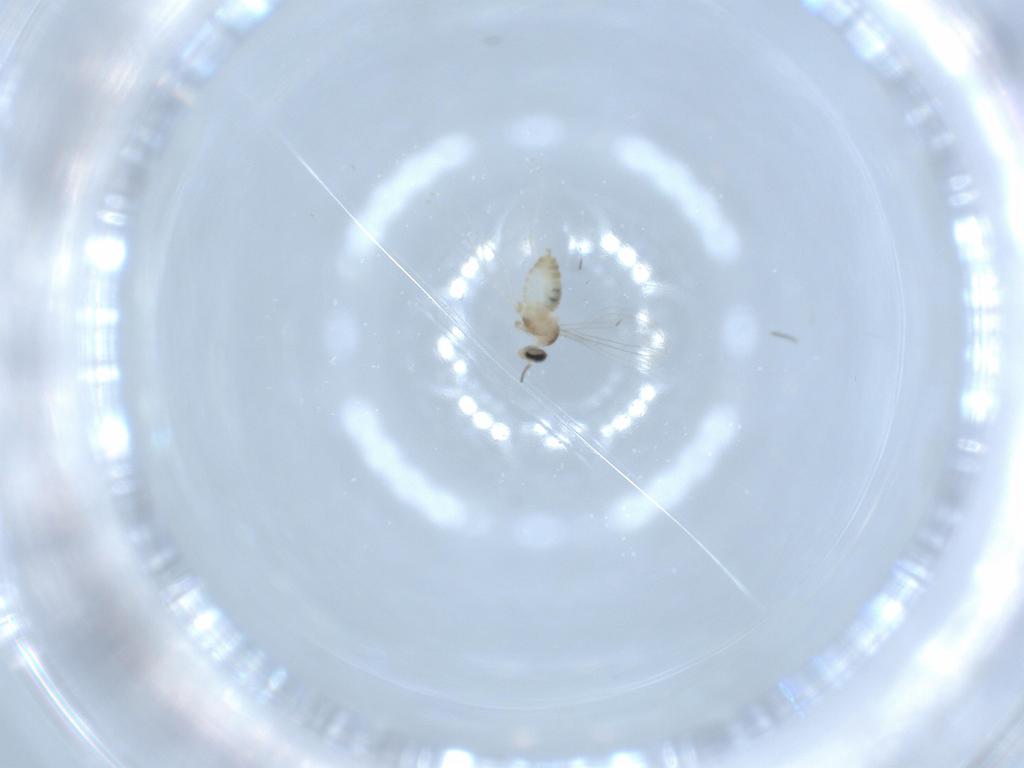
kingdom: Animalia
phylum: Arthropoda
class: Insecta
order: Diptera
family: Cecidomyiidae
